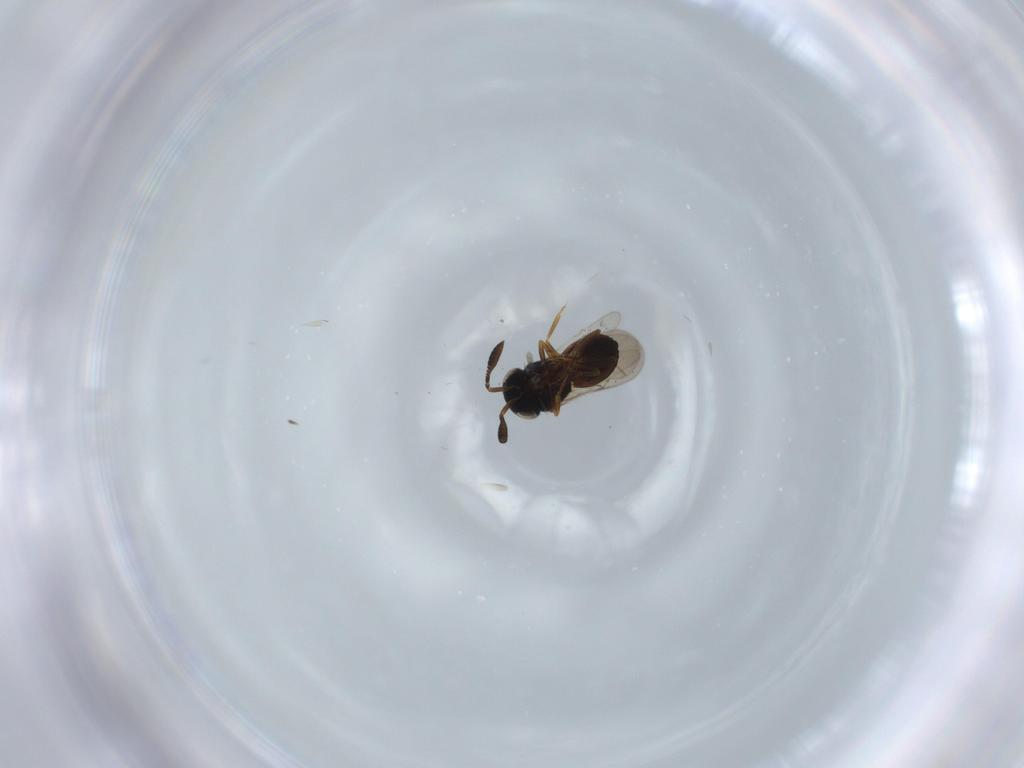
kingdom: Animalia
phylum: Arthropoda
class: Insecta
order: Hymenoptera
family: Scelionidae
